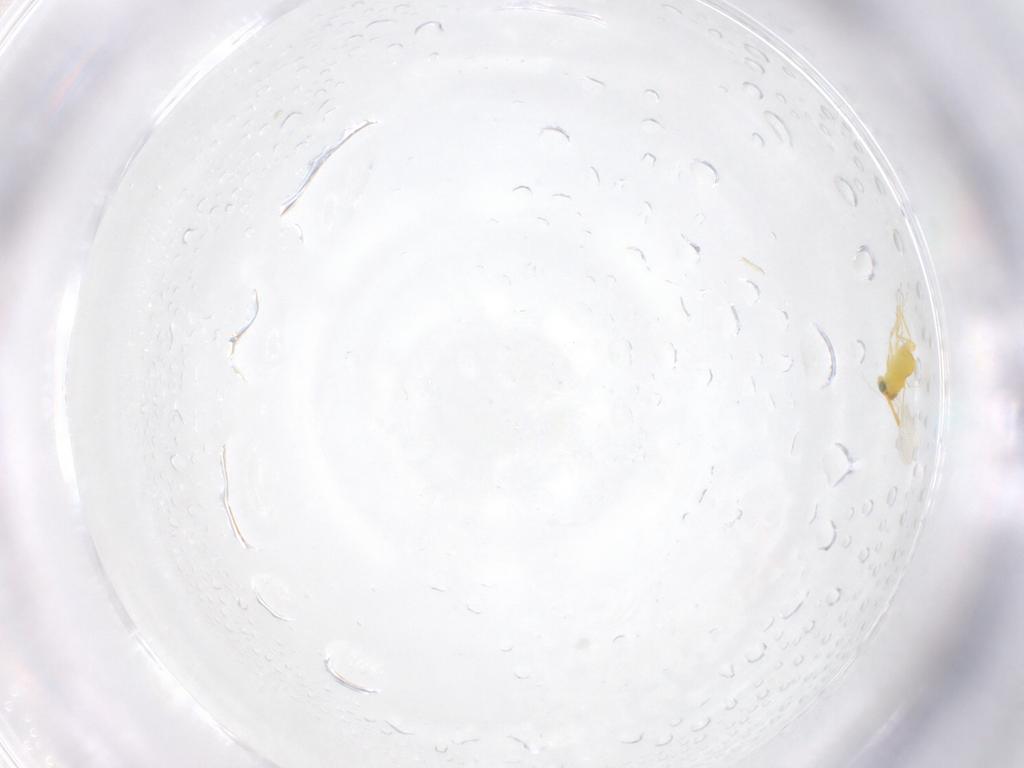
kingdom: Animalia
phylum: Arthropoda
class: Insecta
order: Hymenoptera
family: Aphelinidae
